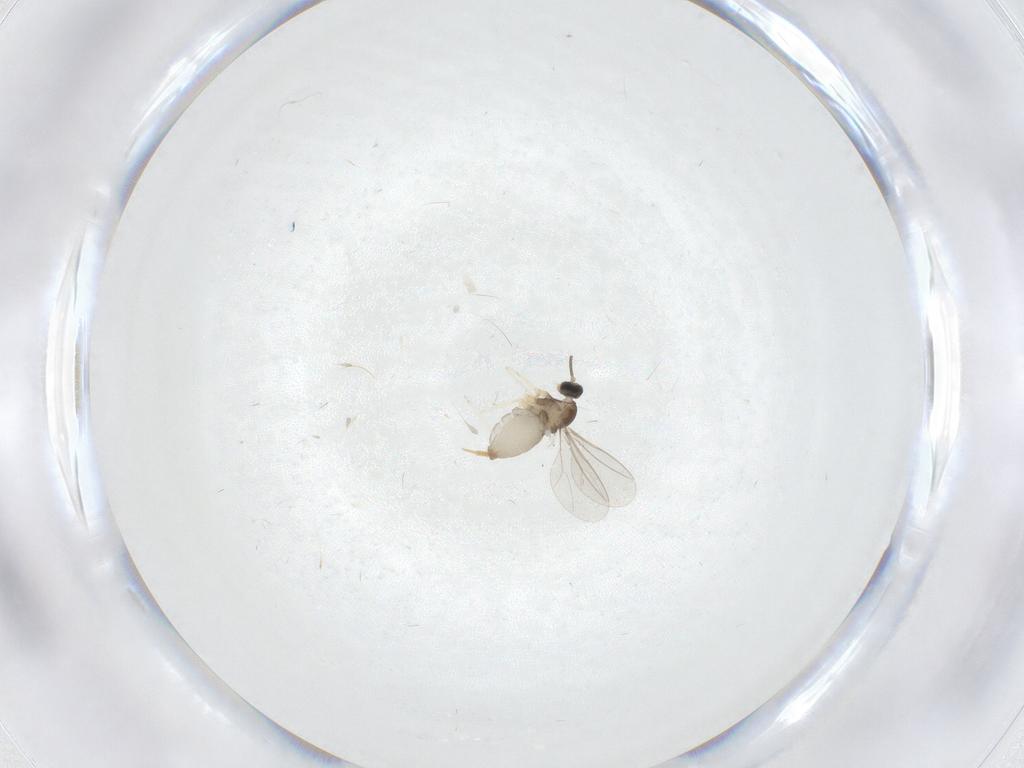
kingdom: Animalia
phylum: Arthropoda
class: Insecta
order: Diptera
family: Cecidomyiidae
